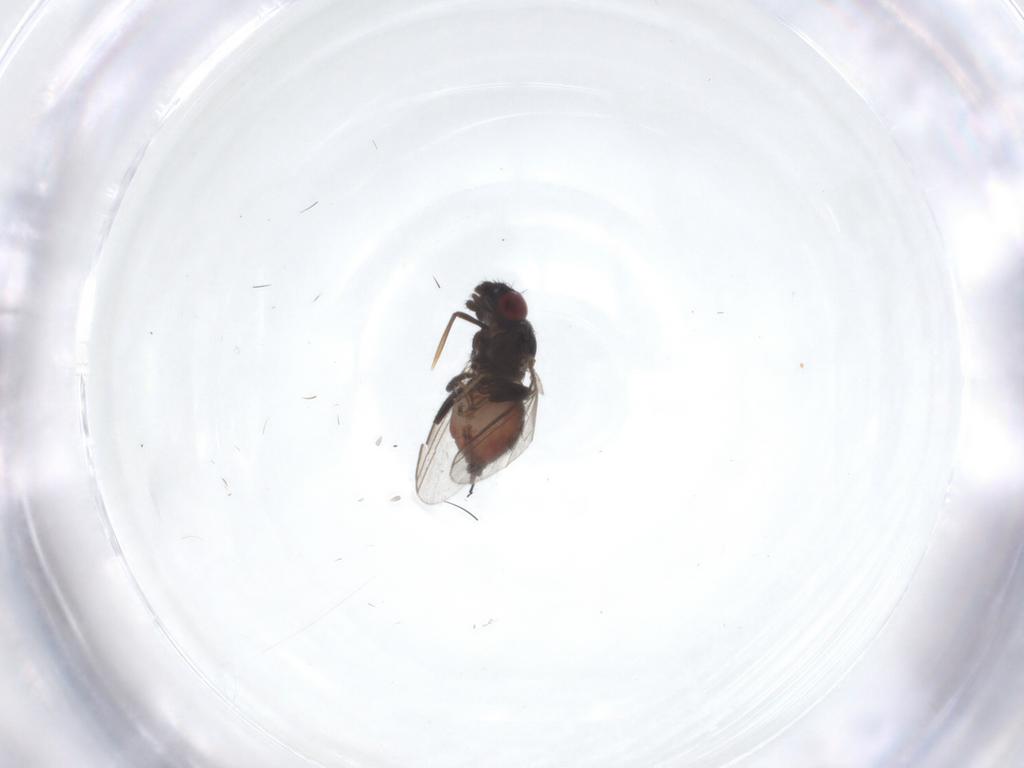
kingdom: Animalia
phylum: Arthropoda
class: Insecta
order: Diptera
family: Milichiidae
